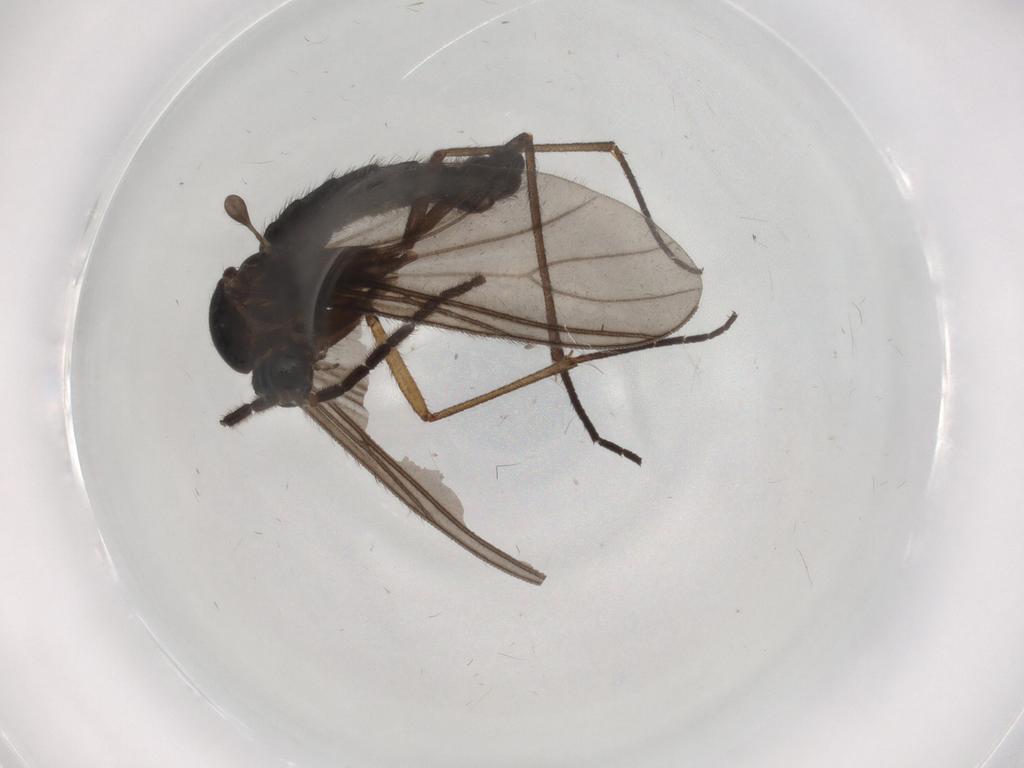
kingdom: Animalia
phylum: Arthropoda
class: Insecta
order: Diptera
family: Sciaridae
